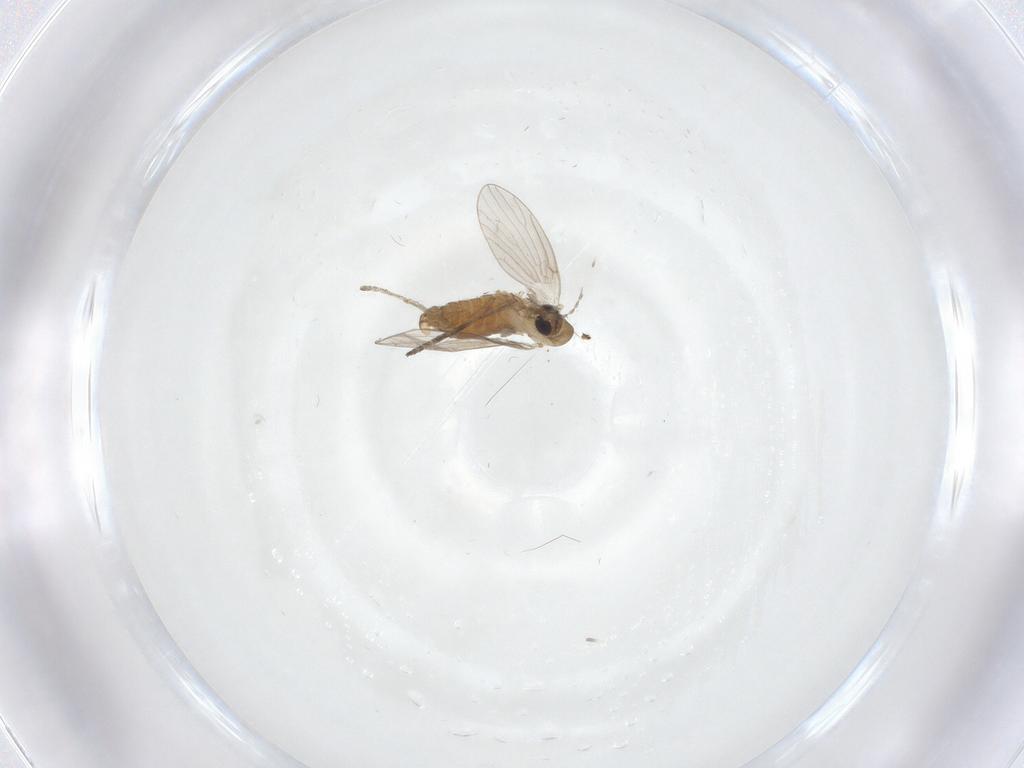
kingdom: Animalia
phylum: Arthropoda
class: Insecta
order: Diptera
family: Psychodidae
